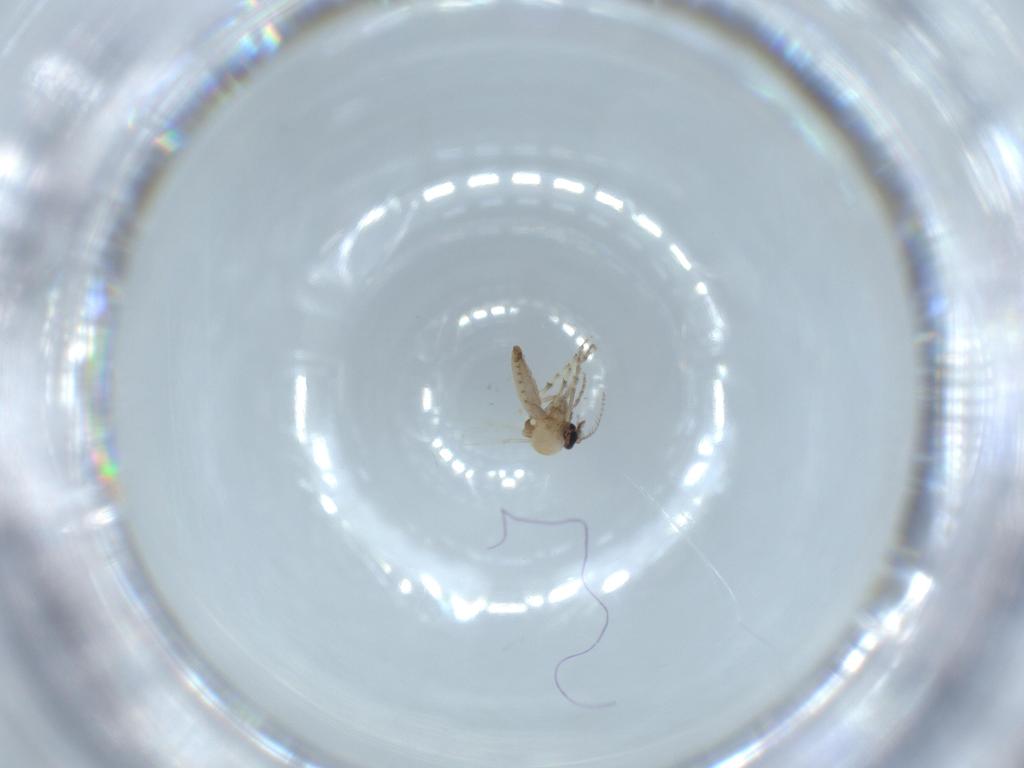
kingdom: Animalia
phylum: Arthropoda
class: Insecta
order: Diptera
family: Ceratopogonidae
